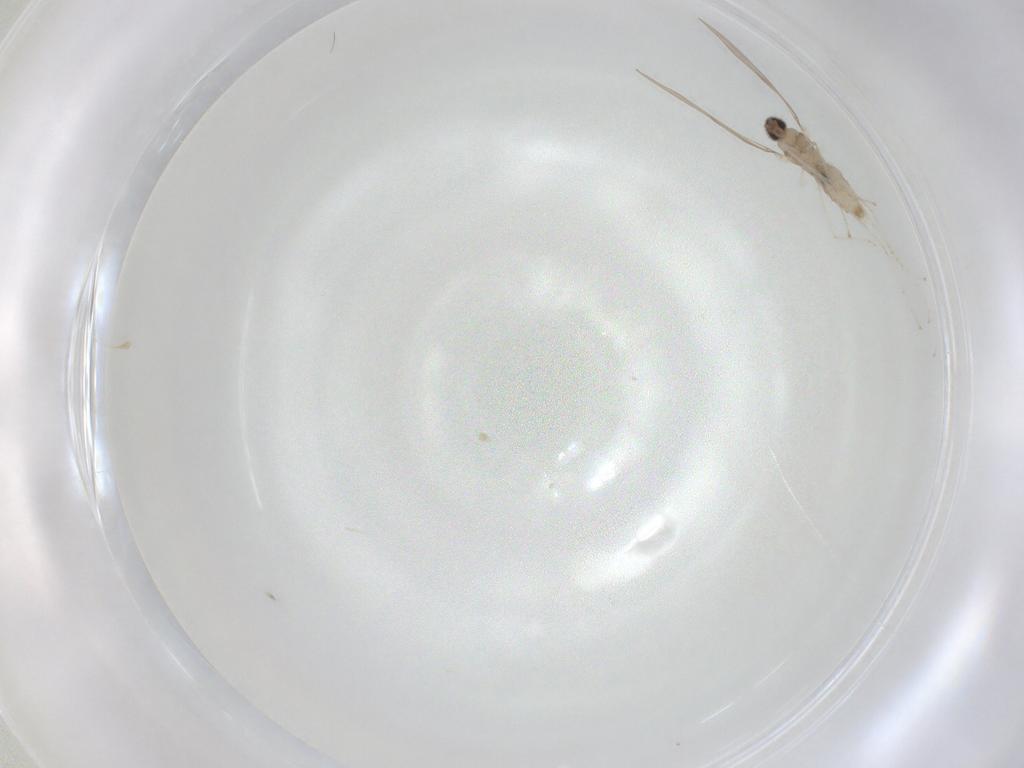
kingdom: Animalia
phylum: Arthropoda
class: Insecta
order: Diptera
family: Cecidomyiidae
